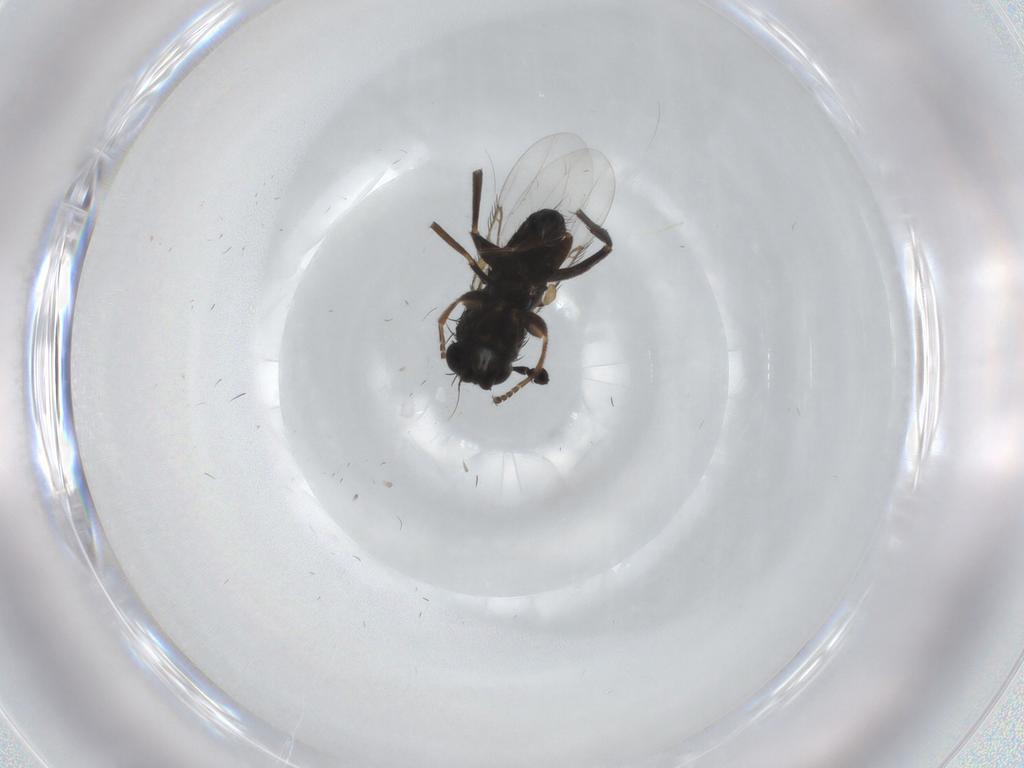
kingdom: Animalia
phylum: Arthropoda
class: Insecta
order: Diptera
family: Phoridae
